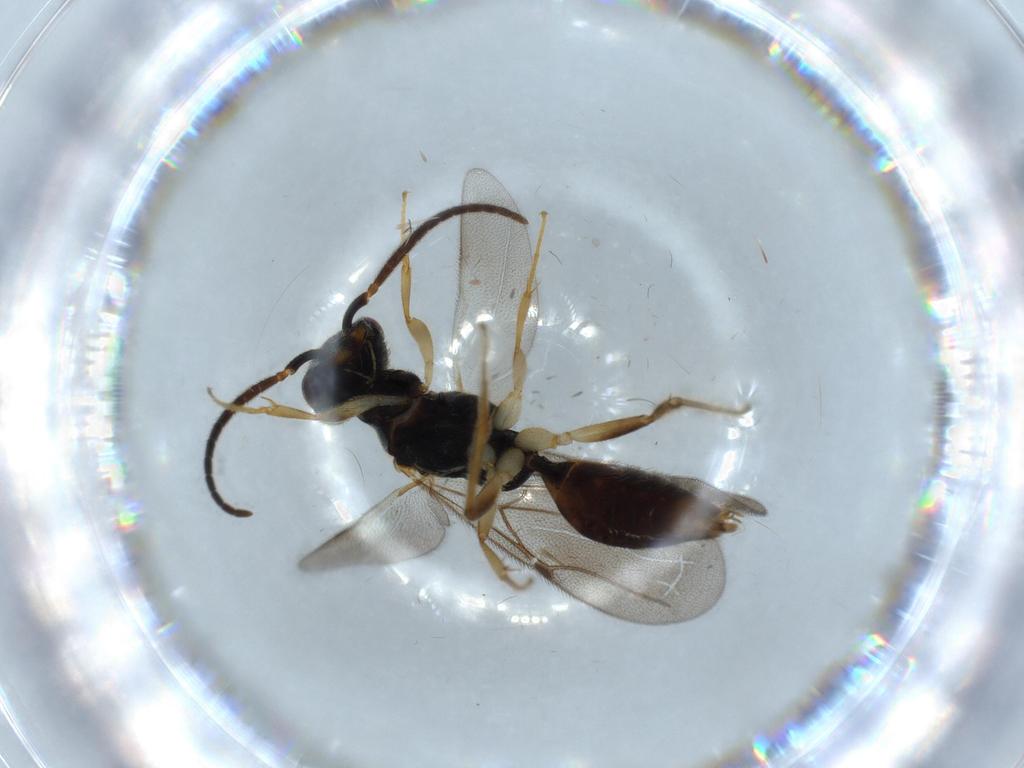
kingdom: Animalia
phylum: Arthropoda
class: Insecta
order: Hymenoptera
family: Bethylidae
